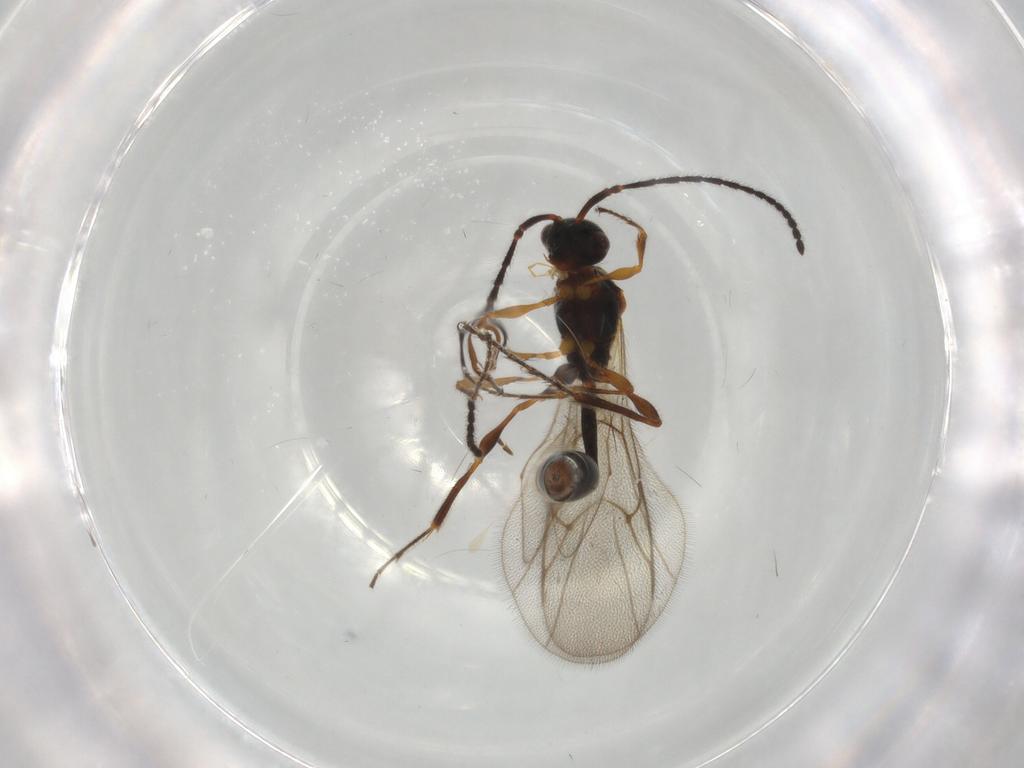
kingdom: Animalia
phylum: Arthropoda
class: Insecta
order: Hymenoptera
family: Diapriidae
